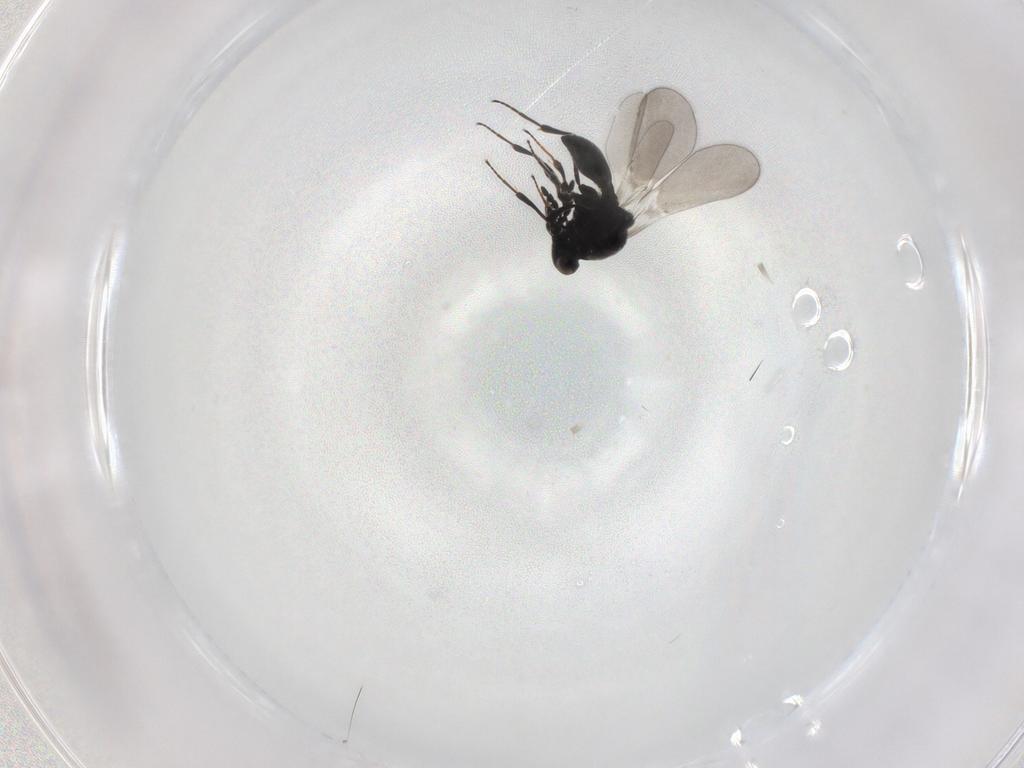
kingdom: Animalia
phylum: Arthropoda
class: Insecta
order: Hymenoptera
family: Platygastridae
